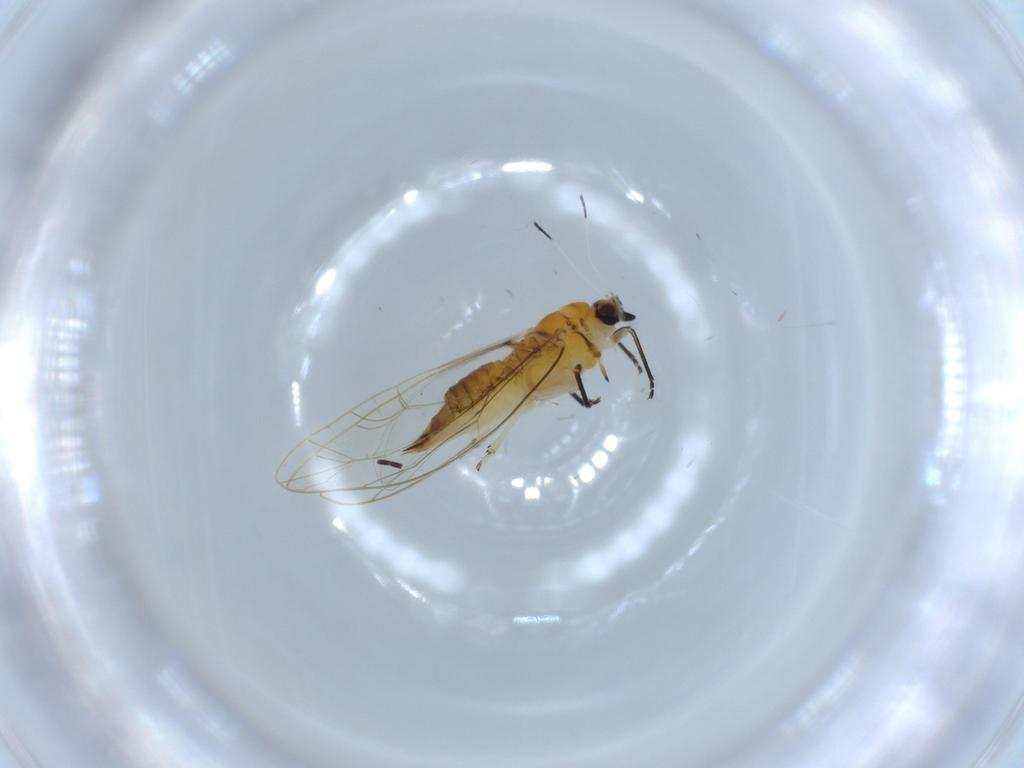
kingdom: Animalia
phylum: Arthropoda
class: Insecta
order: Hemiptera
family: Triozidae
